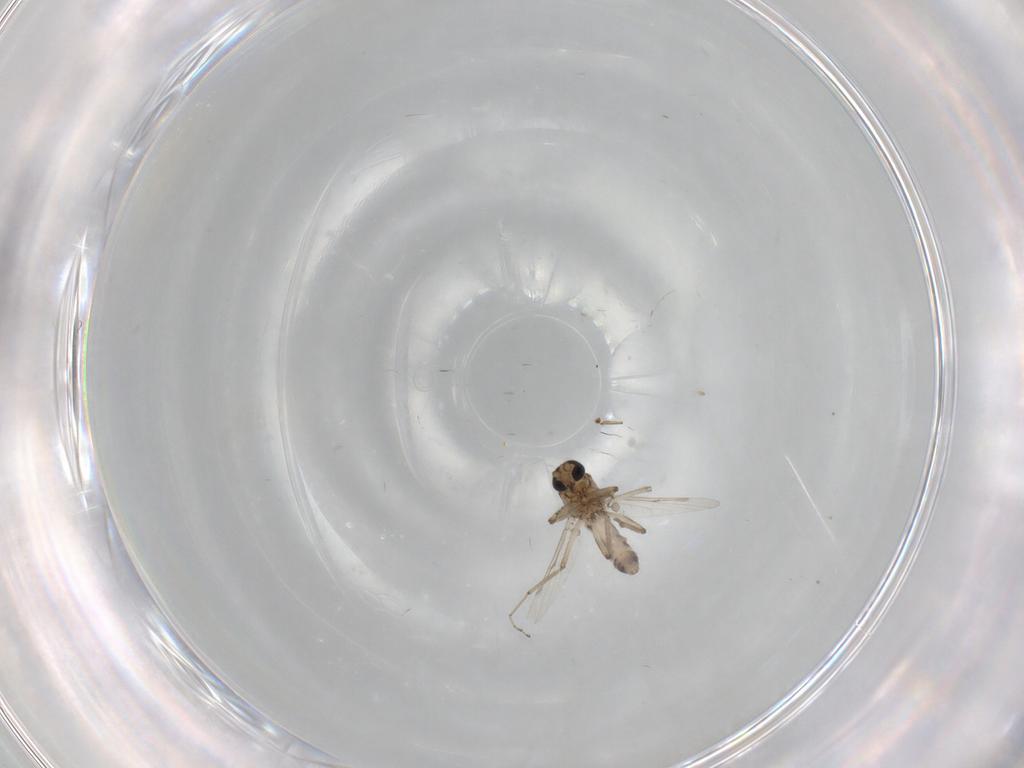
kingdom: Animalia
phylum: Arthropoda
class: Insecta
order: Diptera
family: Ceratopogonidae
